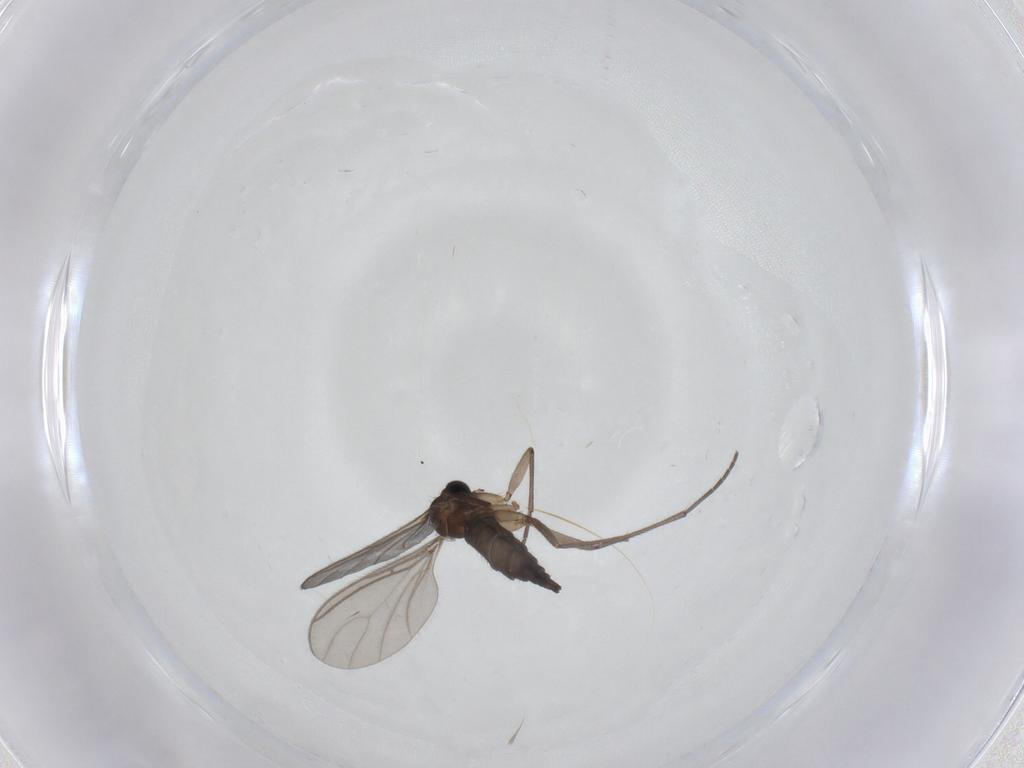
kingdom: Animalia
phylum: Arthropoda
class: Insecta
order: Diptera
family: Sciaridae
